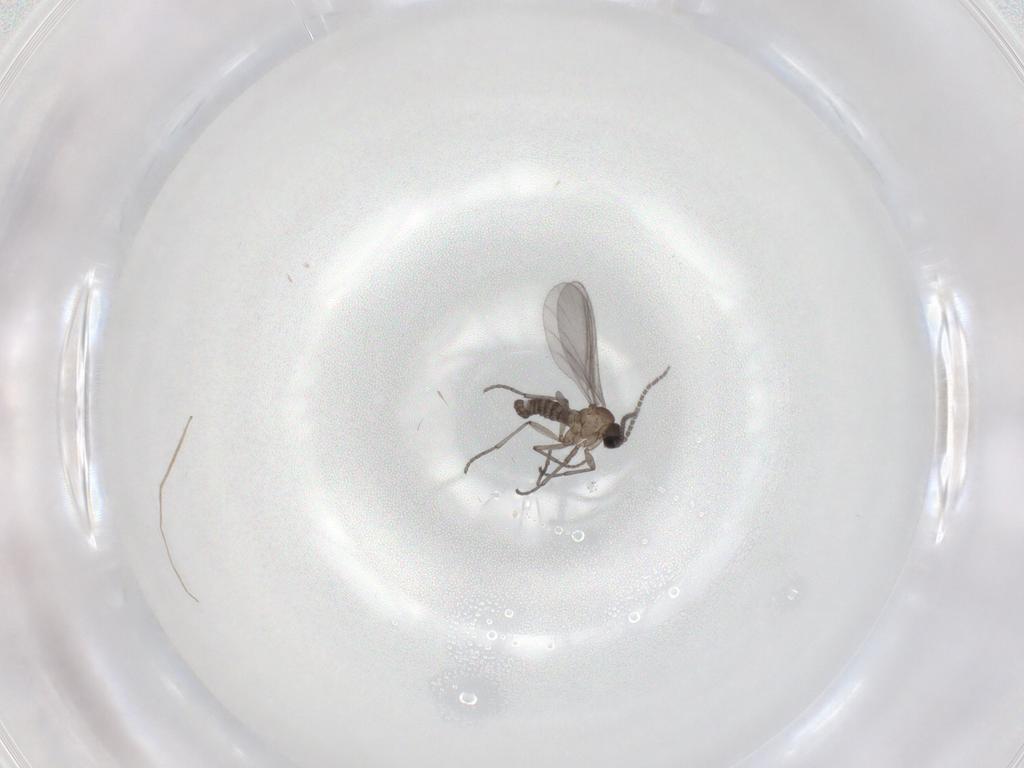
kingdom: Animalia
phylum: Arthropoda
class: Insecta
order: Diptera
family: Sciaridae
